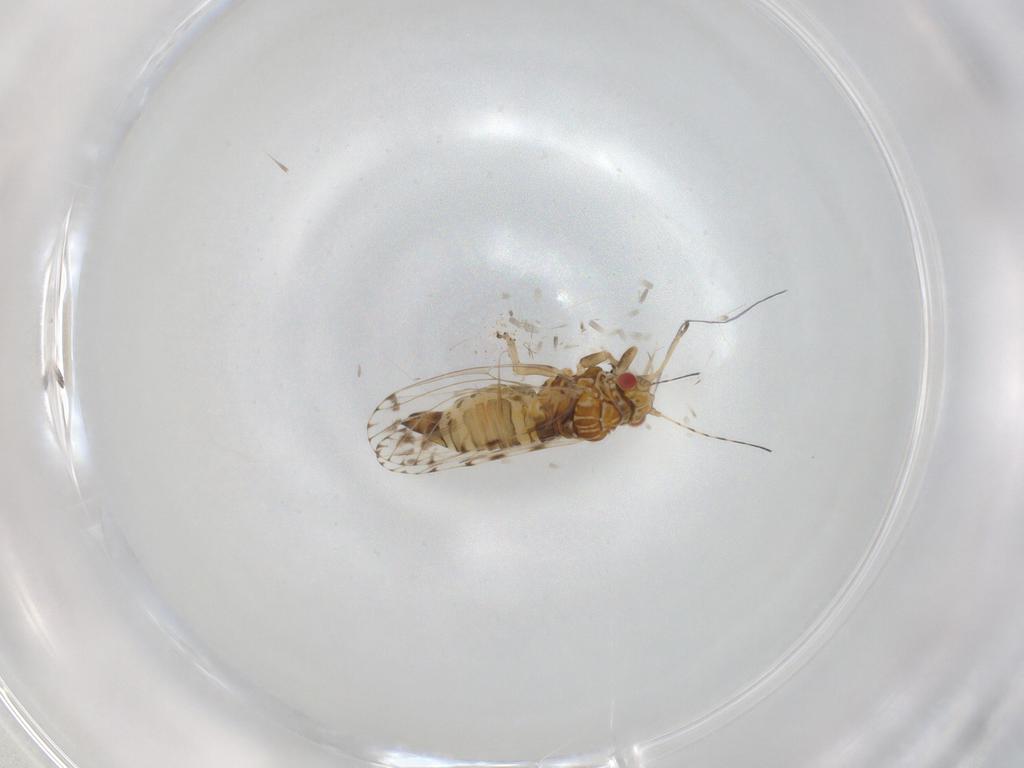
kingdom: Animalia
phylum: Arthropoda
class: Insecta
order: Hemiptera
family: Psyllidae
